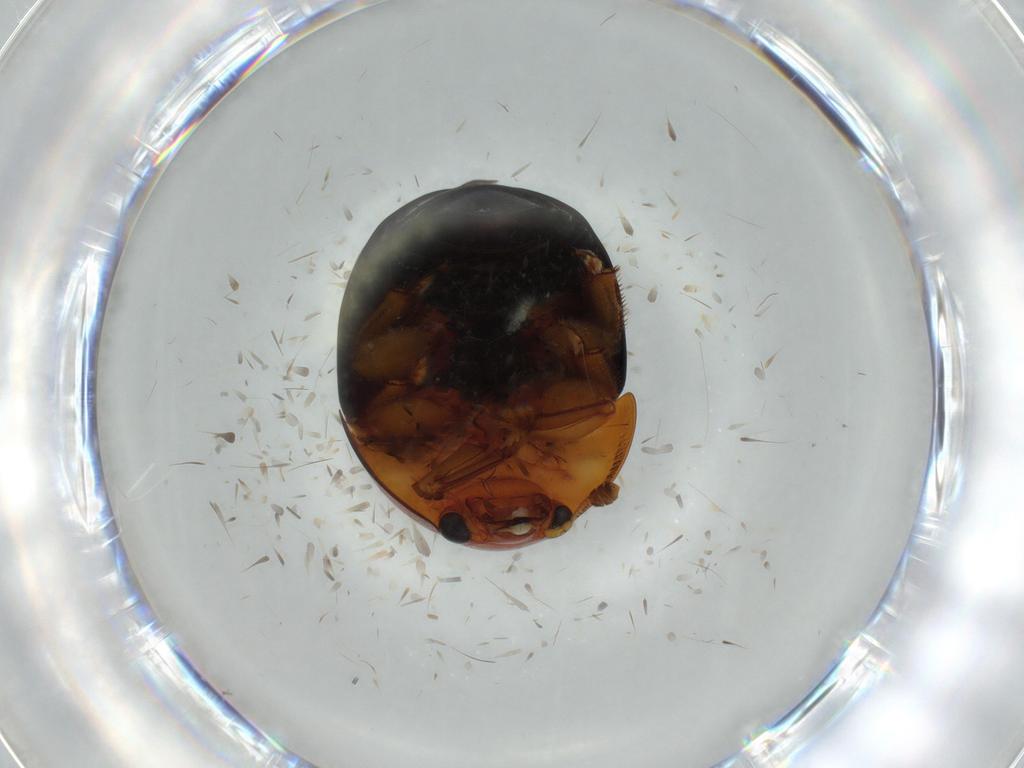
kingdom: Animalia
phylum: Arthropoda
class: Insecta
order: Coleoptera
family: Nitidulidae
